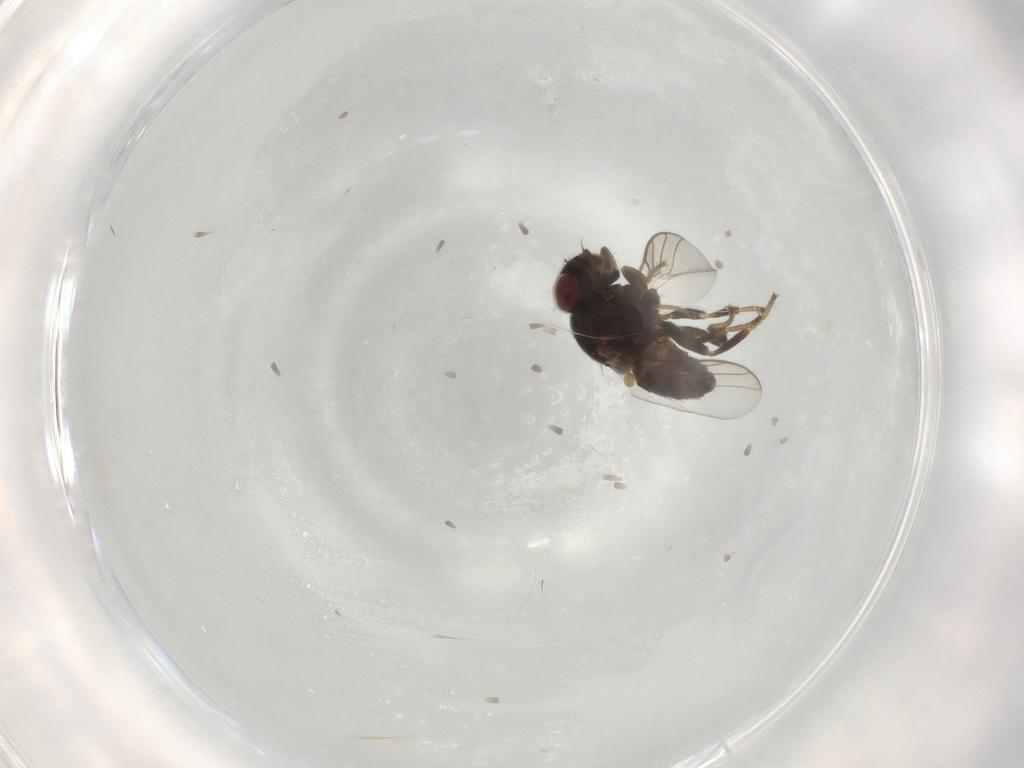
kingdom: Animalia
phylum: Arthropoda
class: Insecta
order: Diptera
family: Chloropidae
